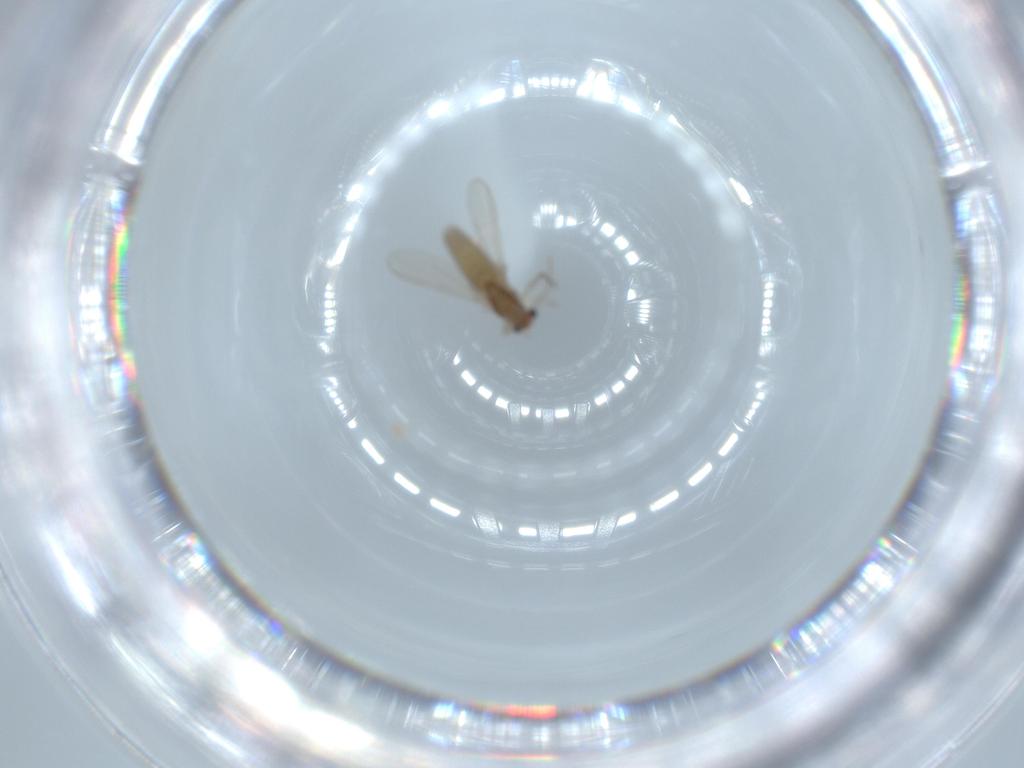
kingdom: Animalia
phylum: Arthropoda
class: Insecta
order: Diptera
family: Chironomidae
